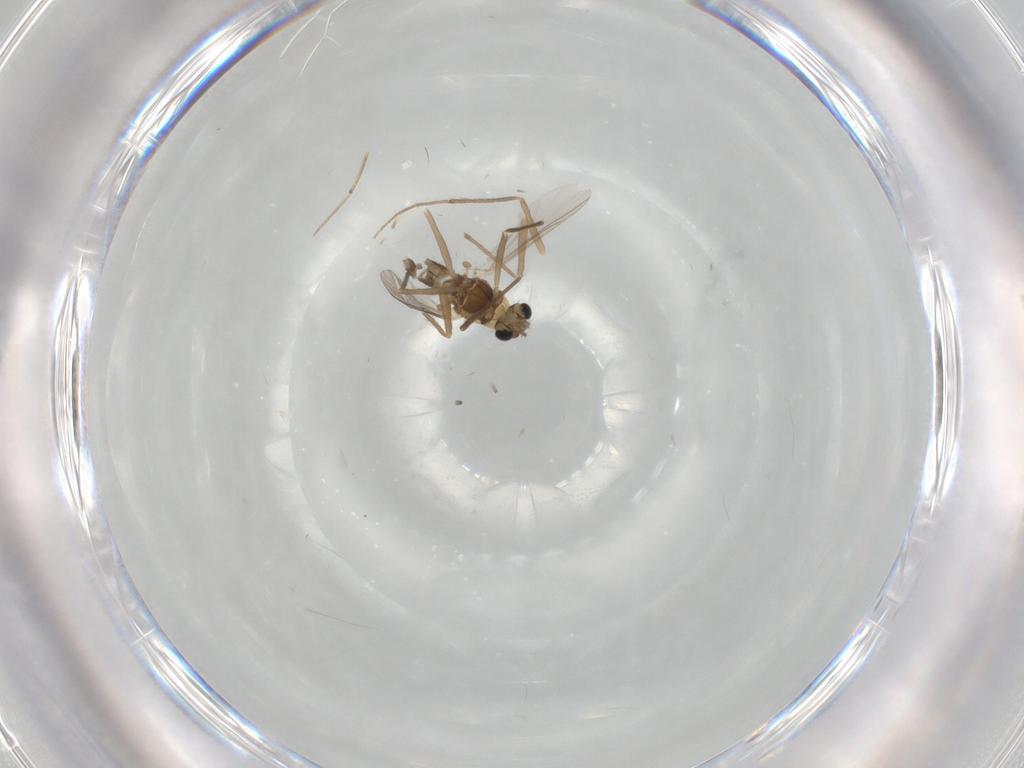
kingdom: Animalia
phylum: Arthropoda
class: Insecta
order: Diptera
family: Chironomidae
